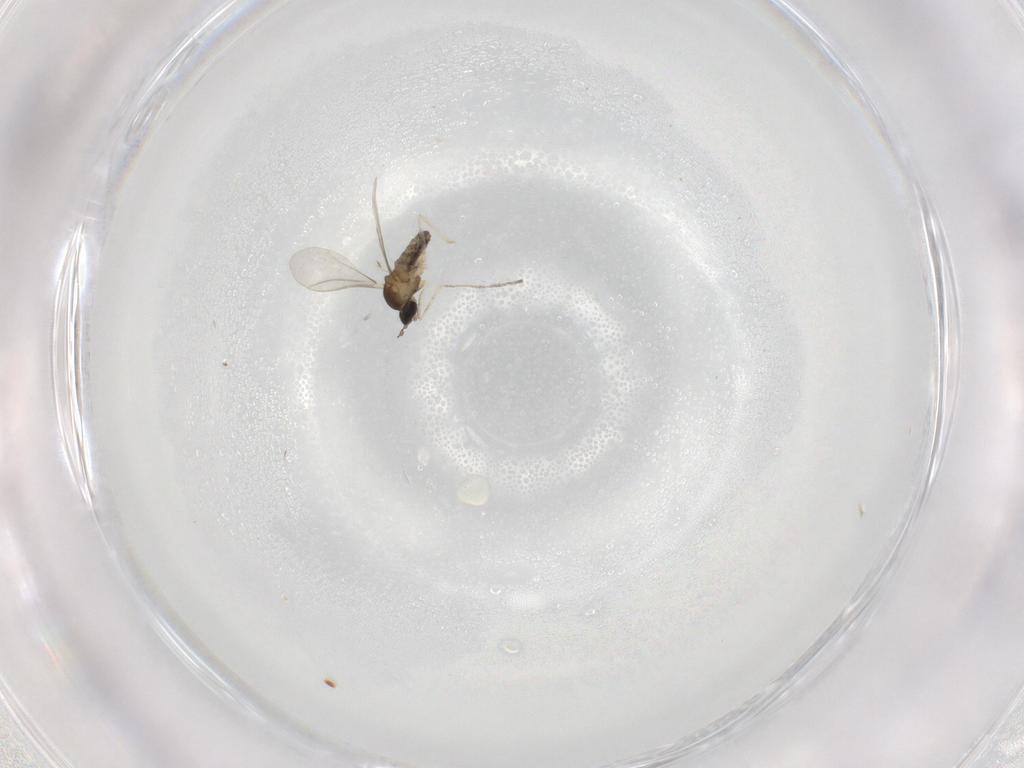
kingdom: Animalia
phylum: Arthropoda
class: Insecta
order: Diptera
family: Cecidomyiidae
